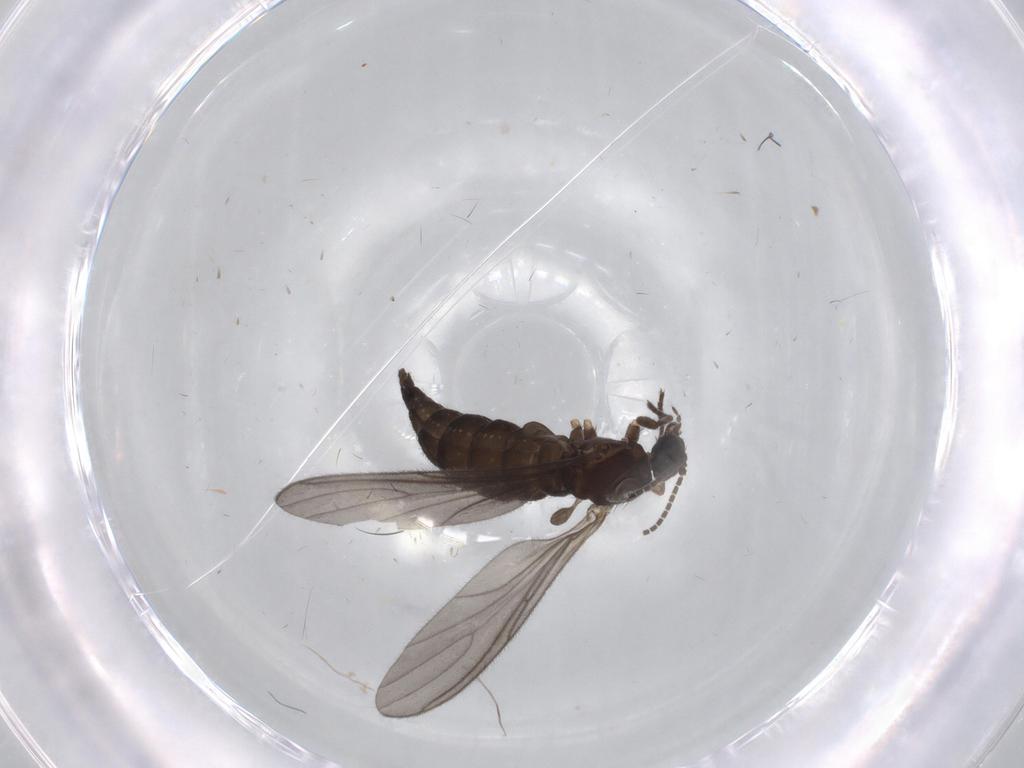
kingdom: Animalia
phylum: Arthropoda
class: Insecta
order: Diptera
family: Sciaridae
